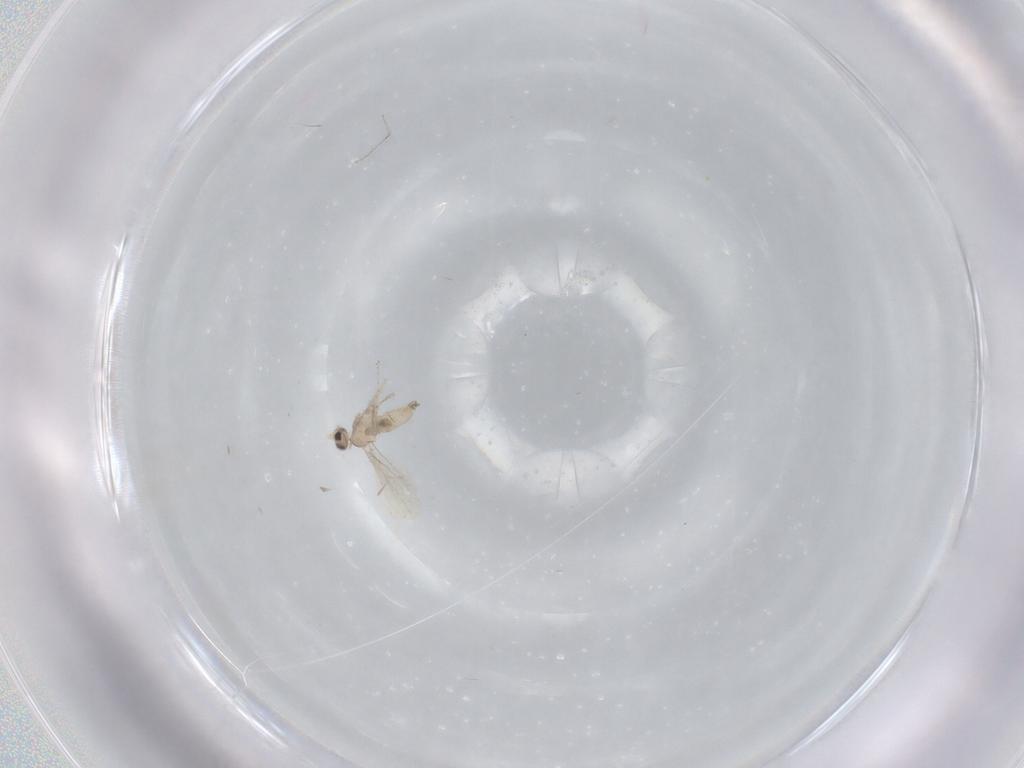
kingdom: Animalia
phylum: Arthropoda
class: Insecta
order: Diptera
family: Cecidomyiidae
